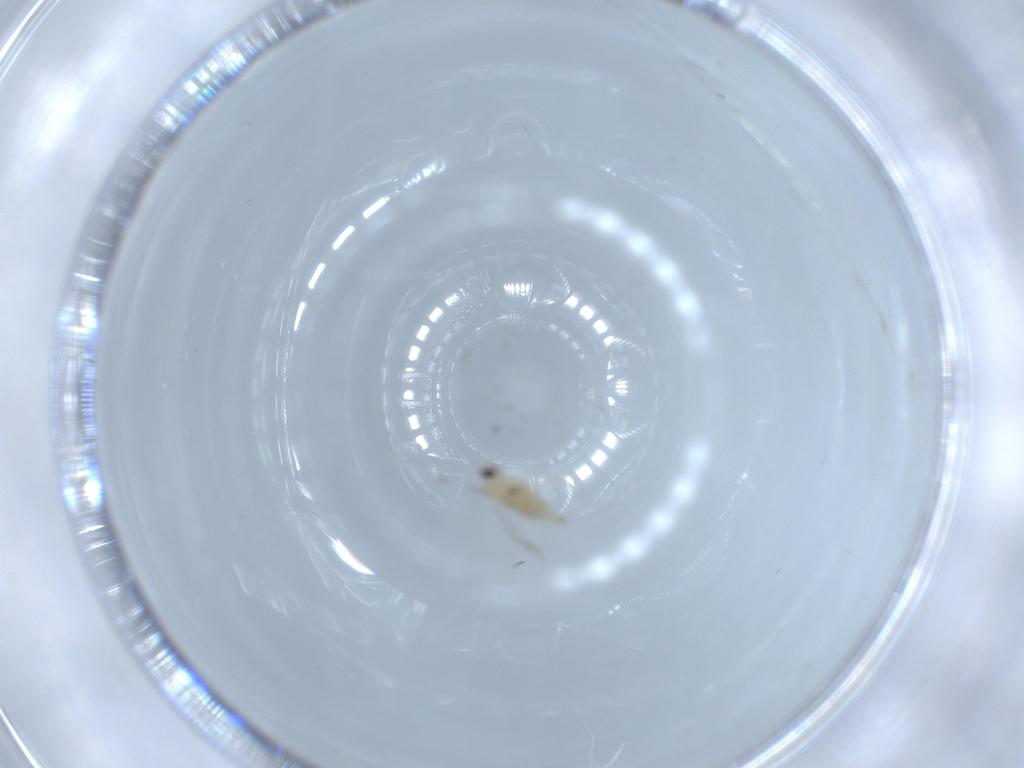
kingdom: Animalia
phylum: Arthropoda
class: Insecta
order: Diptera
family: Cecidomyiidae
